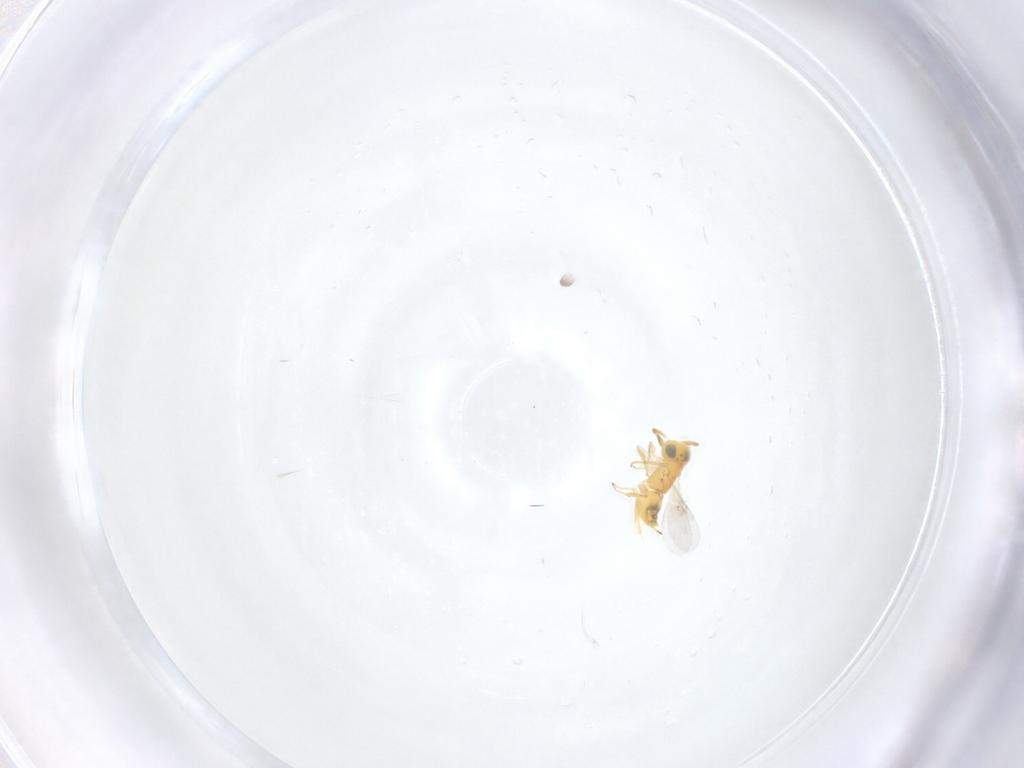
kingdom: Animalia
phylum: Arthropoda
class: Insecta
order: Hymenoptera
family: Encyrtidae
